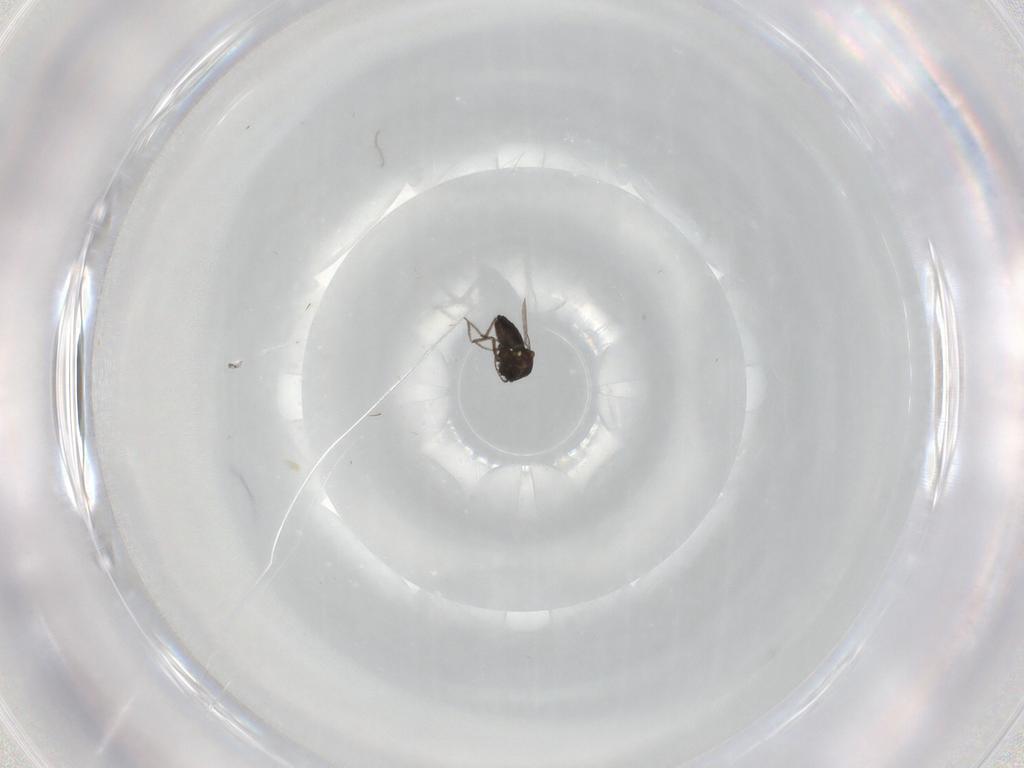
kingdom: Animalia
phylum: Arthropoda
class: Insecta
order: Diptera
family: Ceratopogonidae
